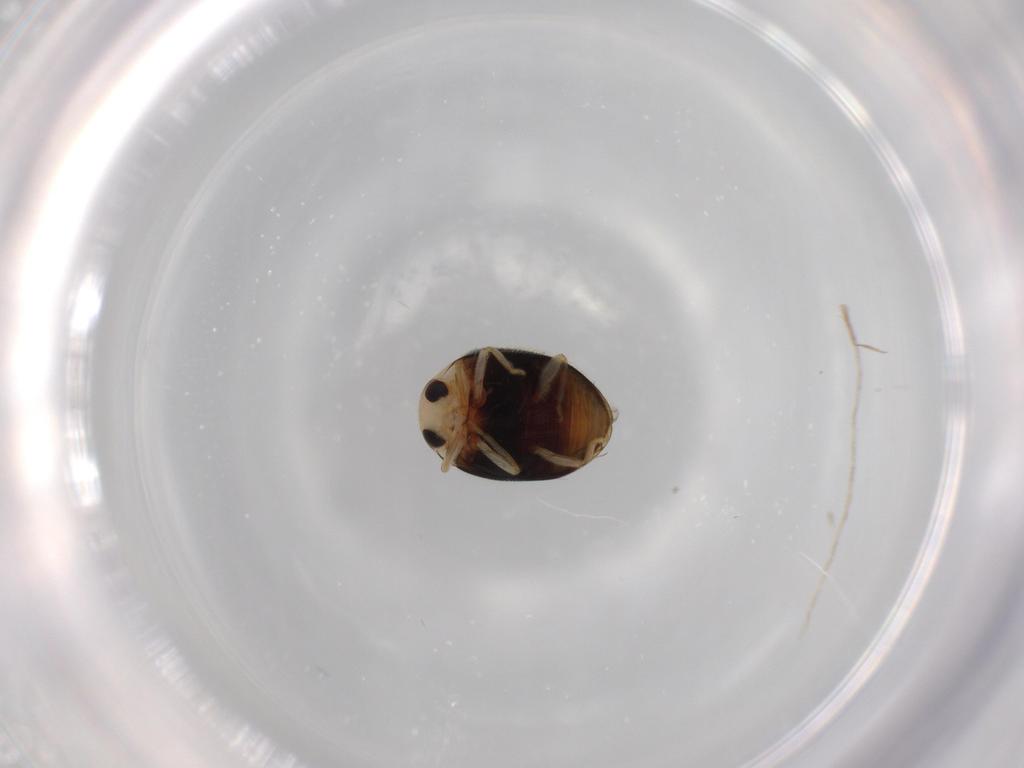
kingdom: Animalia
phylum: Arthropoda
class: Insecta
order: Coleoptera
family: Coccinellidae
